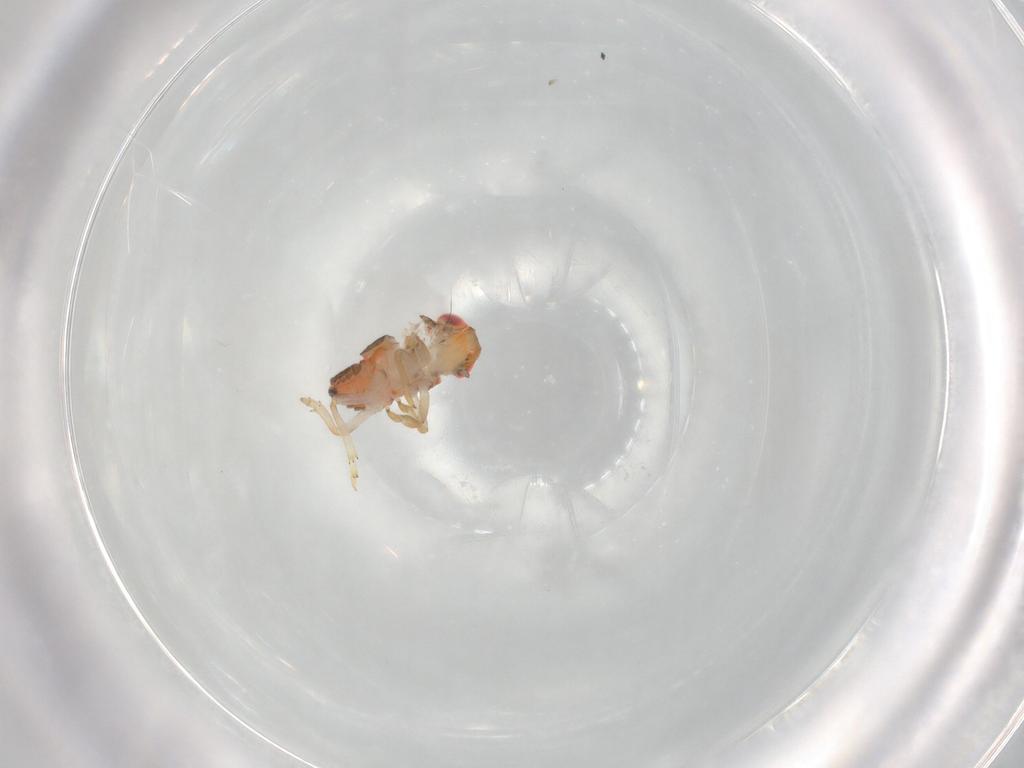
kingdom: Animalia
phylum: Arthropoda
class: Insecta
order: Hemiptera
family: Issidae
